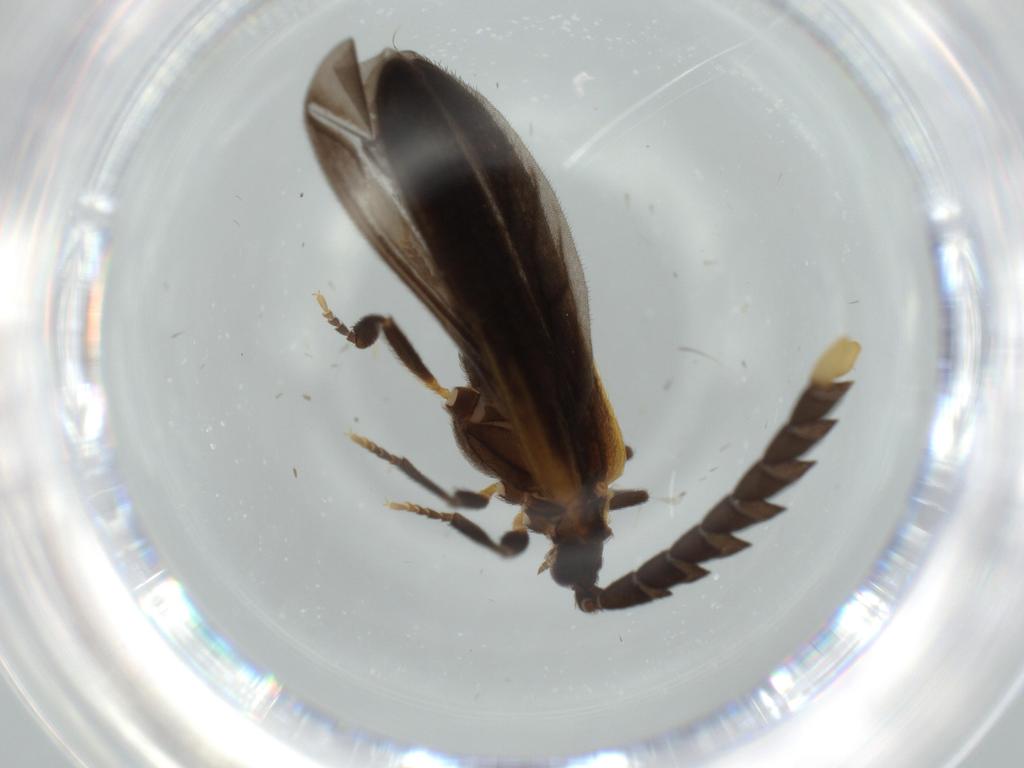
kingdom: Animalia
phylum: Arthropoda
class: Insecta
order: Coleoptera
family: Lycidae
